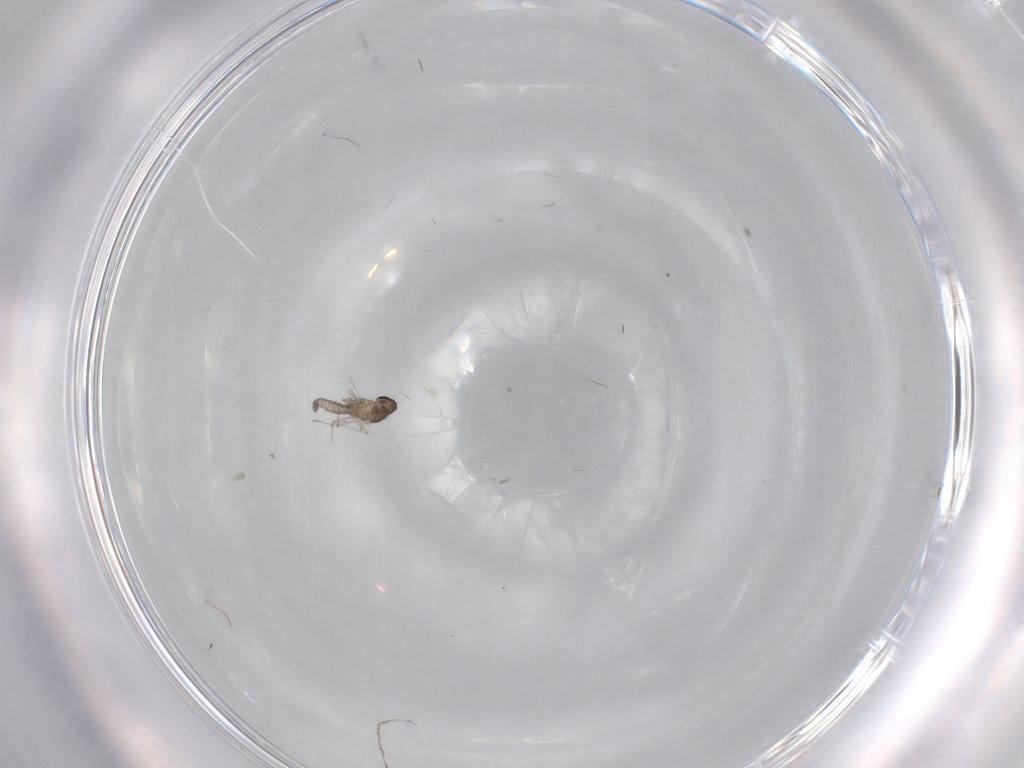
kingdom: Animalia
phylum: Arthropoda
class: Insecta
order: Diptera
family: Cecidomyiidae
